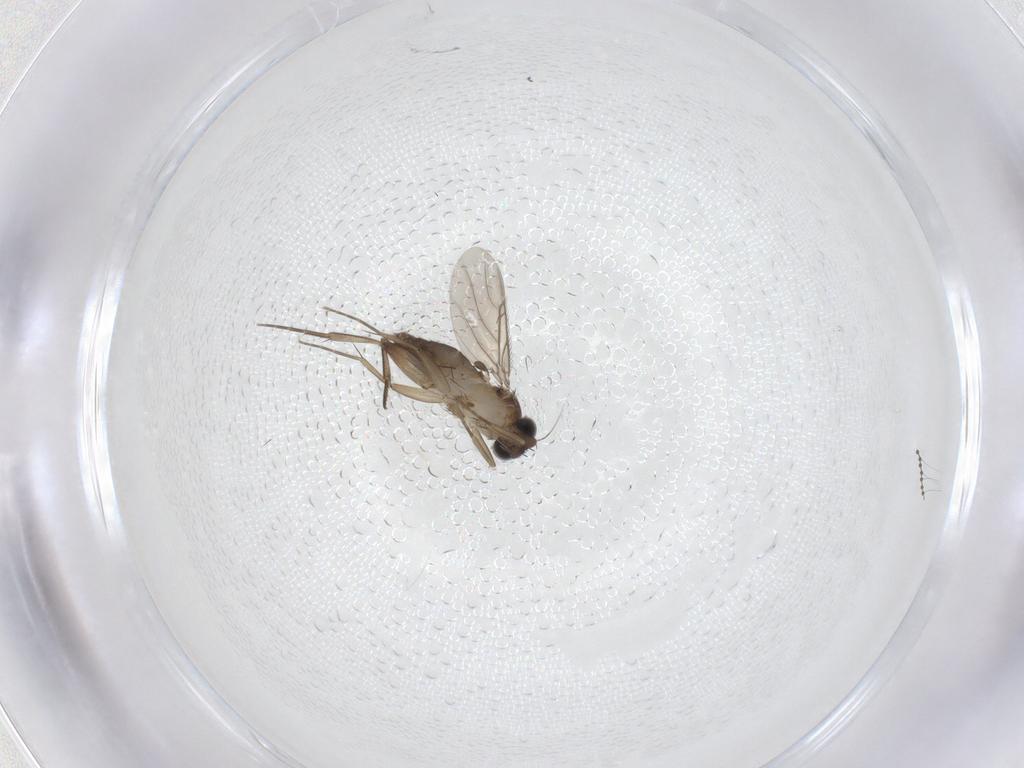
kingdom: Animalia
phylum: Arthropoda
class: Insecta
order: Diptera
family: Phoridae
